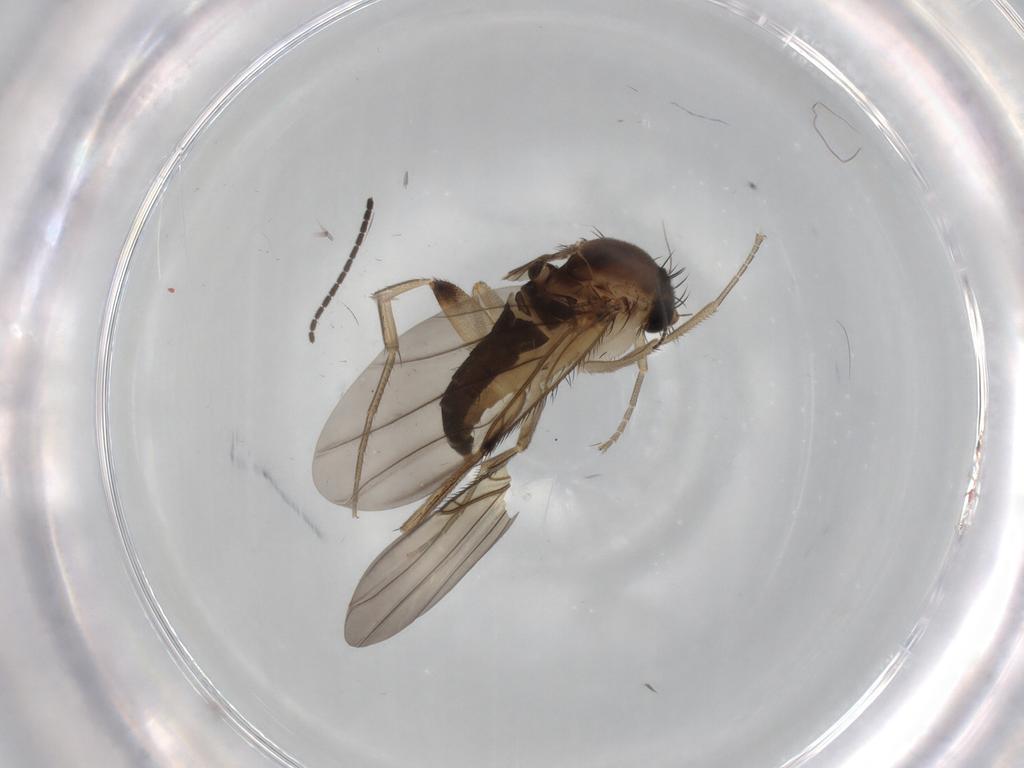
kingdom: Animalia
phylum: Arthropoda
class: Insecta
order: Diptera
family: Phoridae
